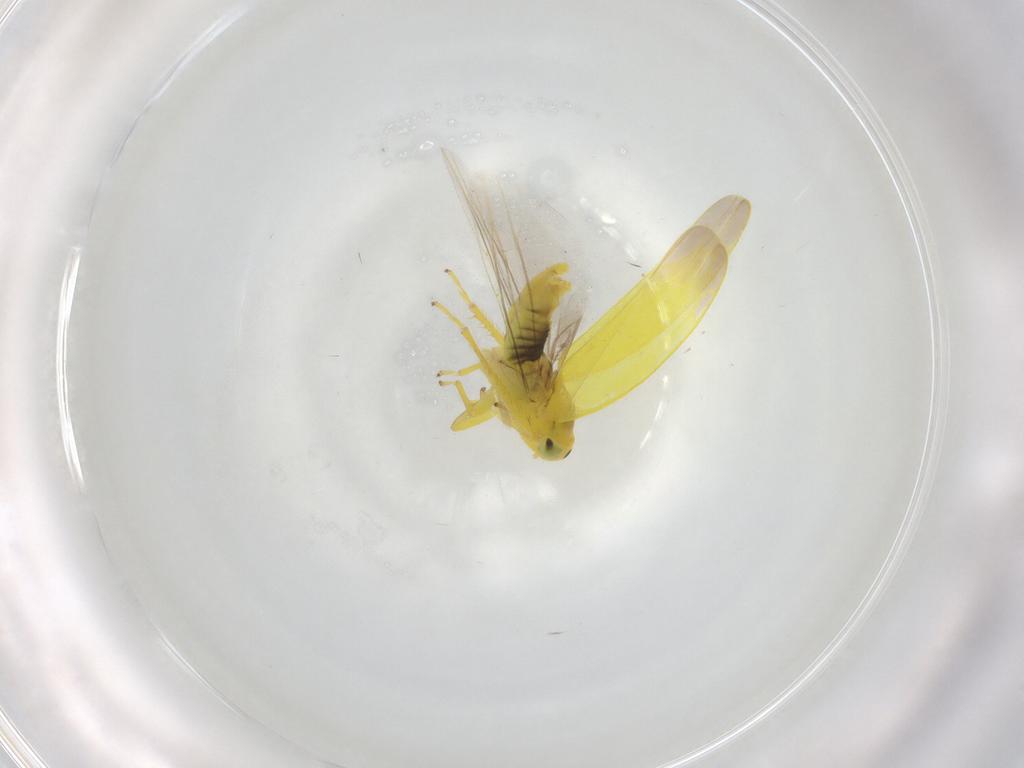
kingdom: Animalia
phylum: Arthropoda
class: Insecta
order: Hemiptera
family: Cicadellidae
